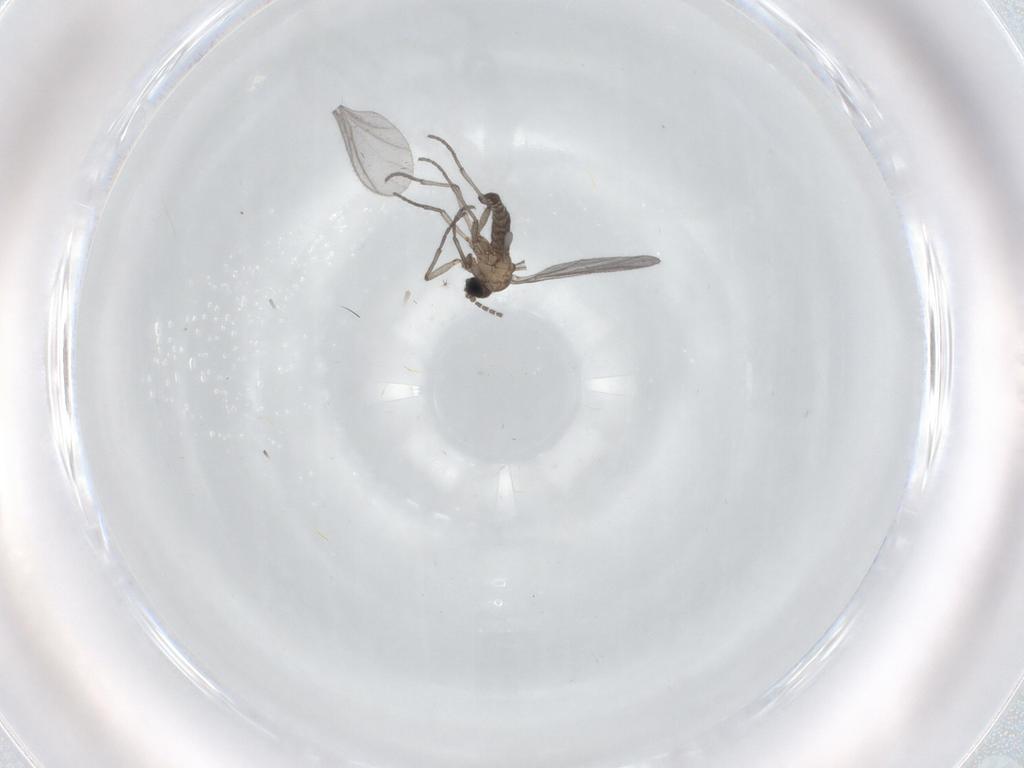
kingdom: Animalia
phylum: Arthropoda
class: Insecta
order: Diptera
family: Sciaridae
